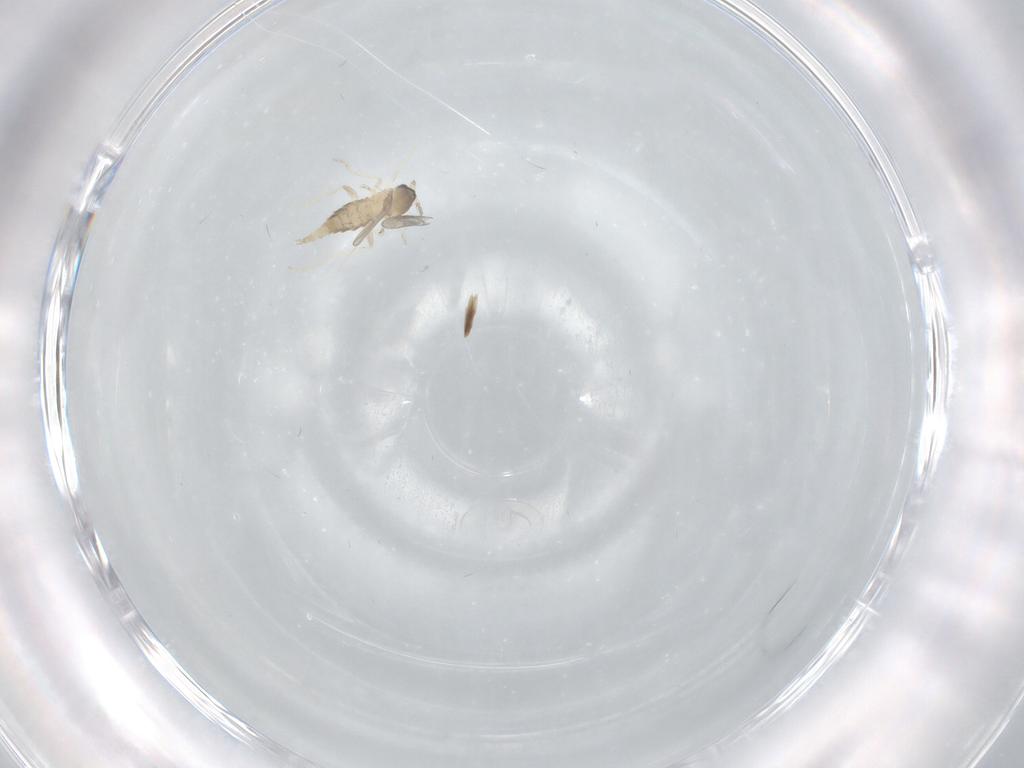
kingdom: Animalia
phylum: Arthropoda
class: Insecta
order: Diptera
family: Cecidomyiidae
